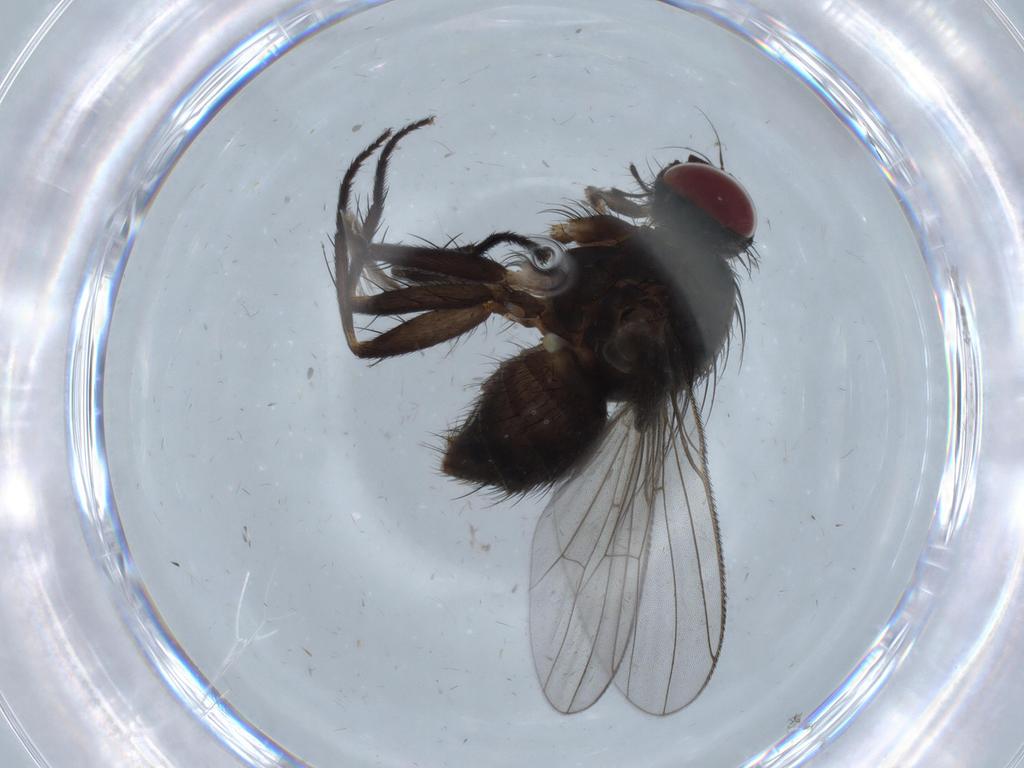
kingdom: Animalia
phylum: Arthropoda
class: Insecta
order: Diptera
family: Muscidae
